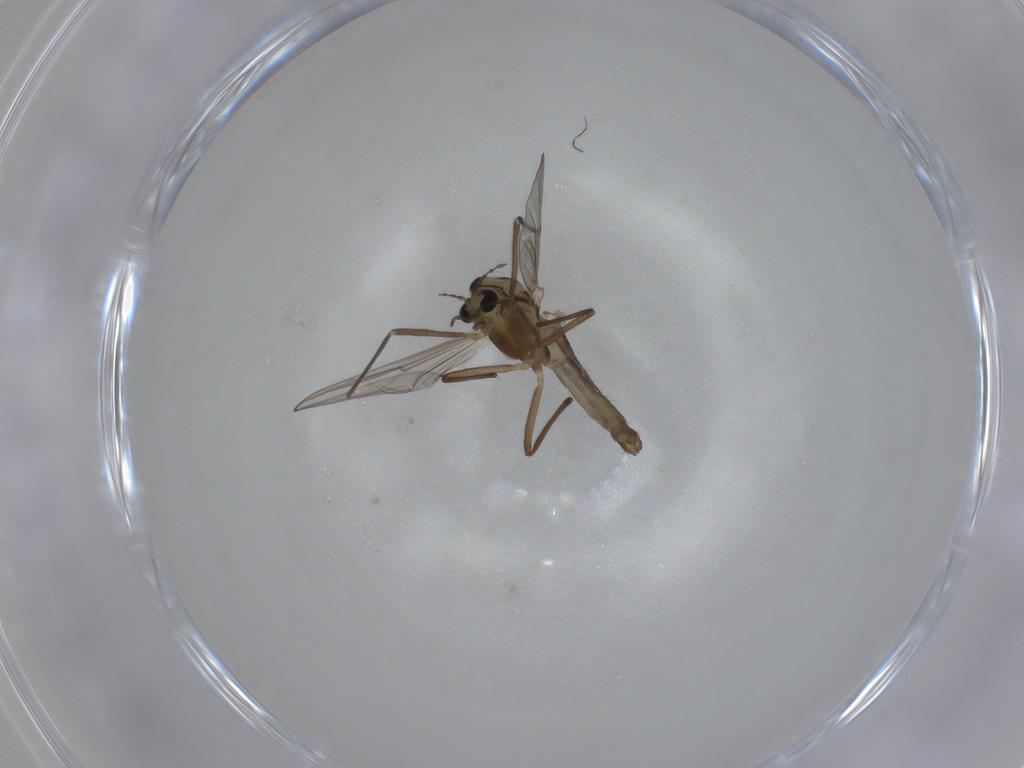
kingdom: Animalia
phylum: Arthropoda
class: Insecta
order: Diptera
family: Chironomidae
